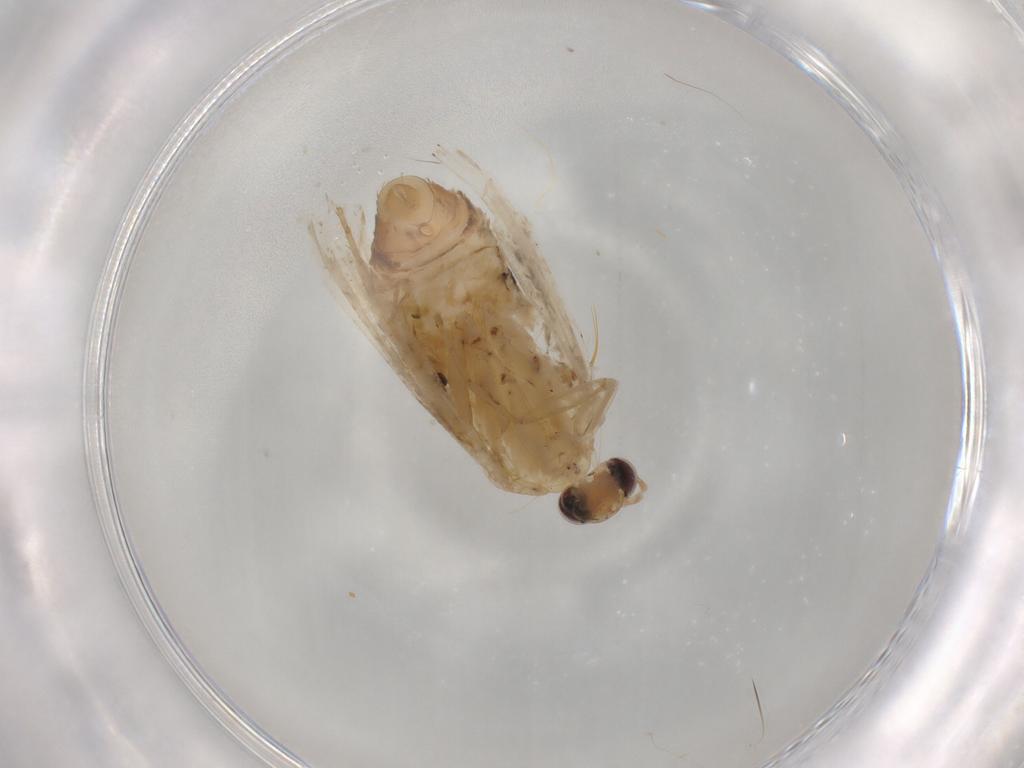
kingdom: Animalia
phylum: Arthropoda
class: Insecta
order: Lepidoptera
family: Erebidae
